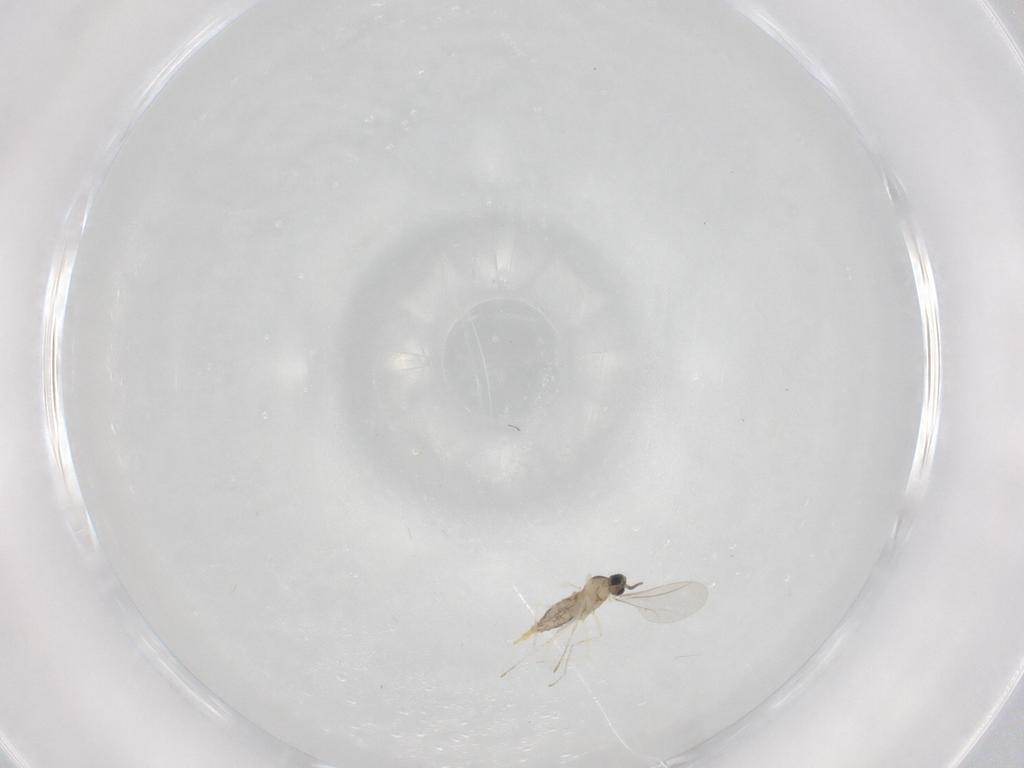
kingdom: Animalia
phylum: Arthropoda
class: Insecta
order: Diptera
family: Cecidomyiidae
